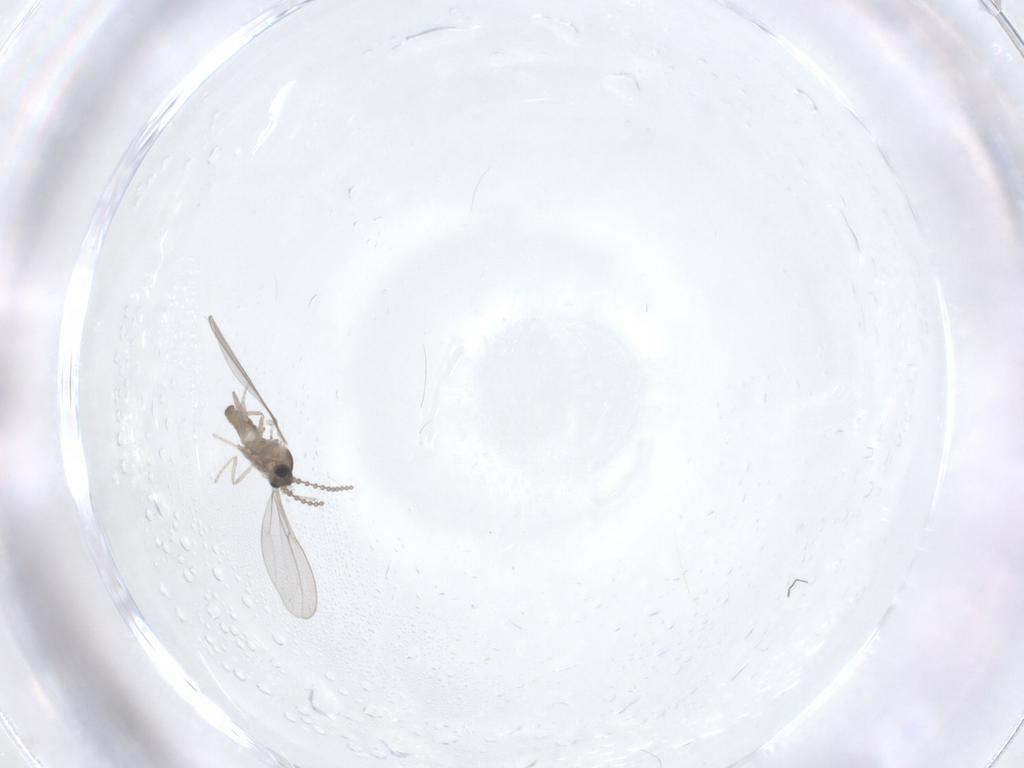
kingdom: Animalia
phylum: Arthropoda
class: Insecta
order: Diptera
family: Cecidomyiidae
